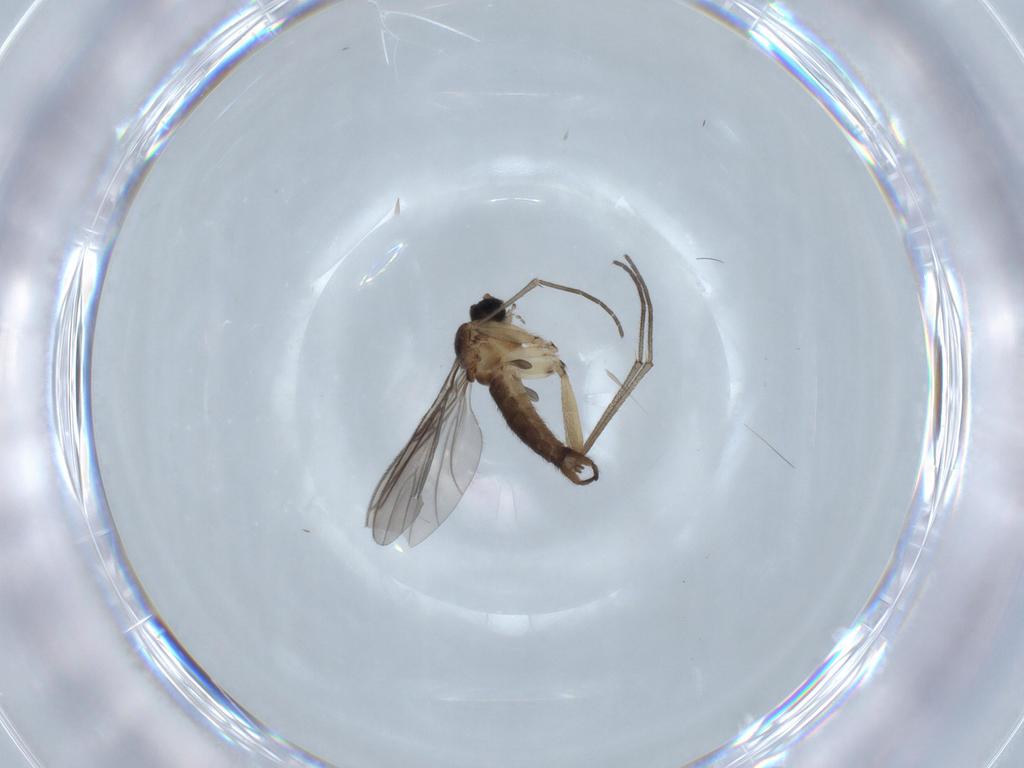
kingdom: Animalia
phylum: Arthropoda
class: Insecta
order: Diptera
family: Sciaridae
